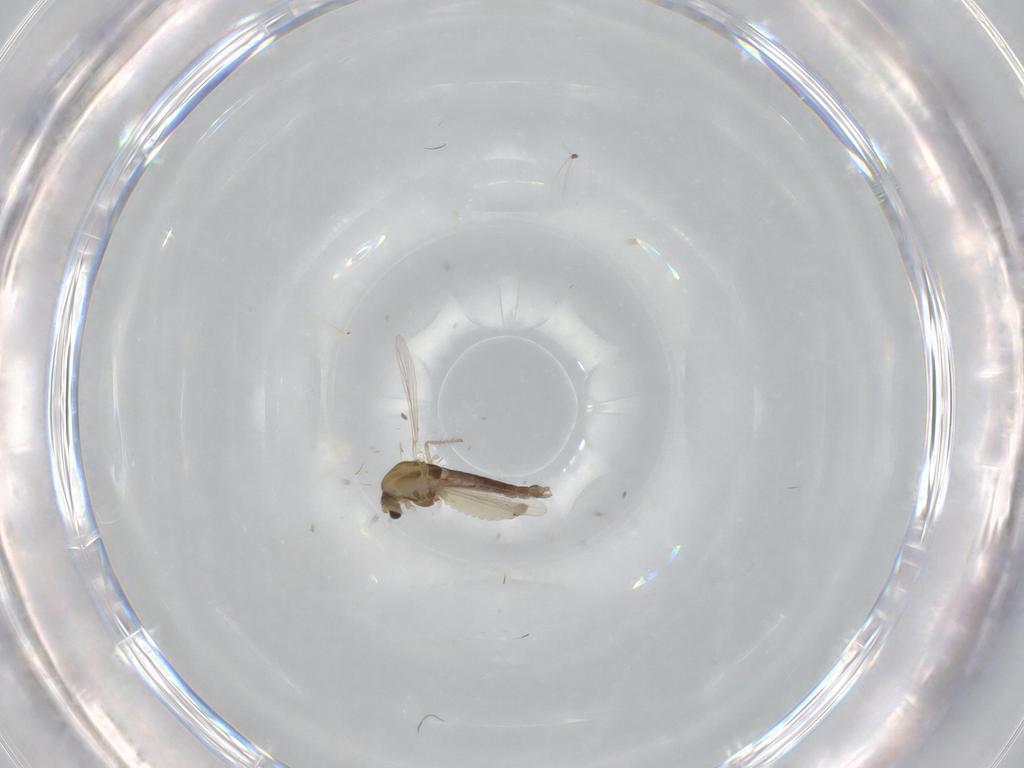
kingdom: Animalia
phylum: Arthropoda
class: Insecta
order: Diptera
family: Chironomidae
